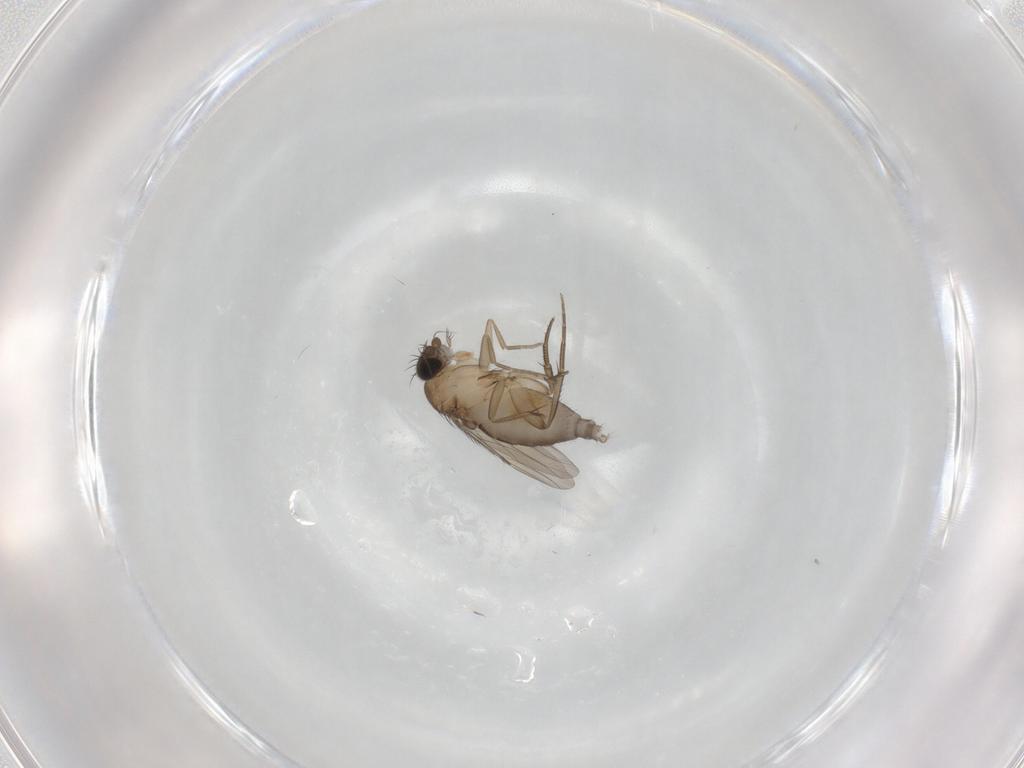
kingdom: Animalia
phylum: Arthropoda
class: Insecta
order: Diptera
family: Phoridae
